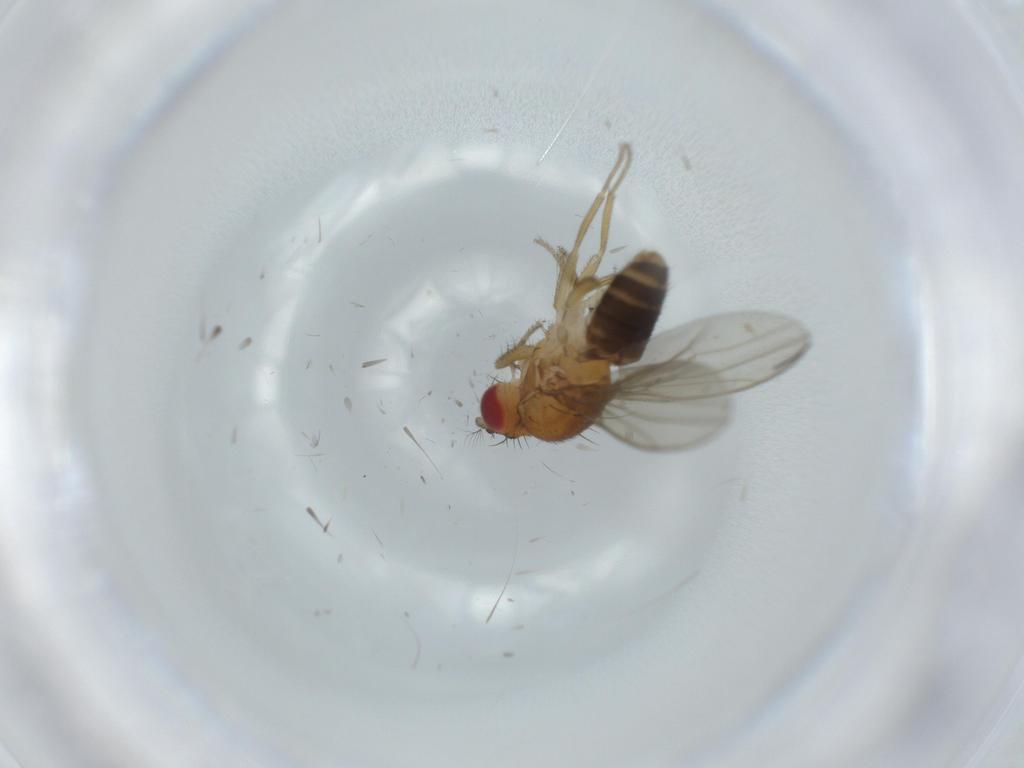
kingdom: Animalia
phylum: Arthropoda
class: Insecta
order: Diptera
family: Drosophilidae
